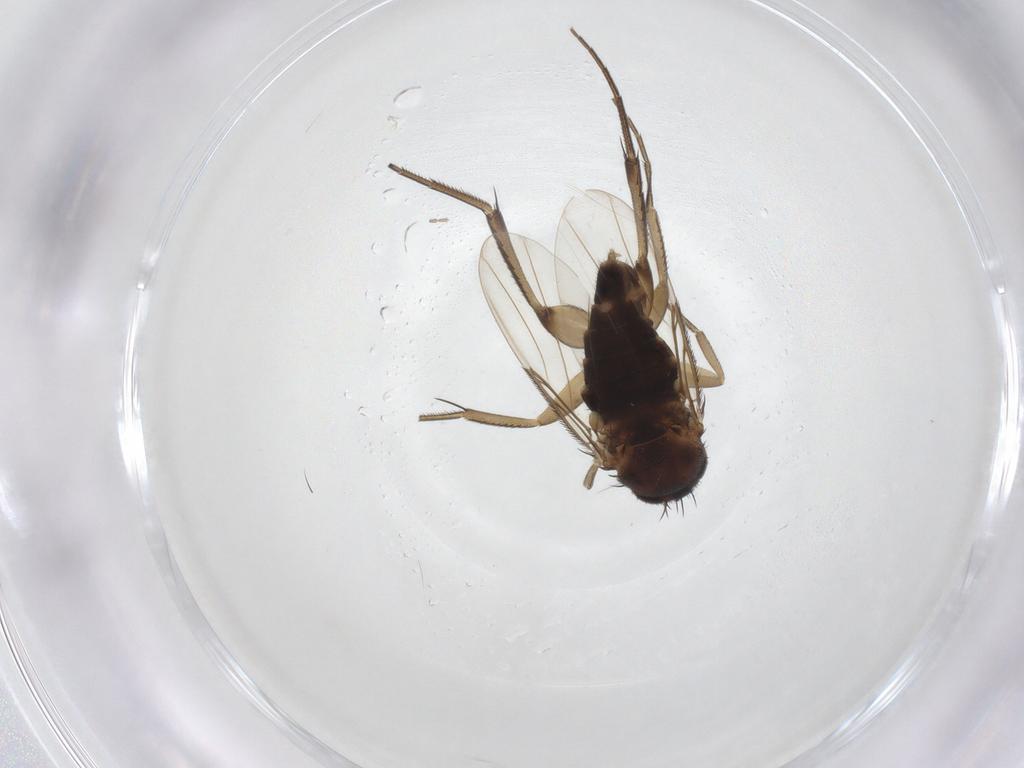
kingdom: Animalia
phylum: Arthropoda
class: Insecta
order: Diptera
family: Phoridae
